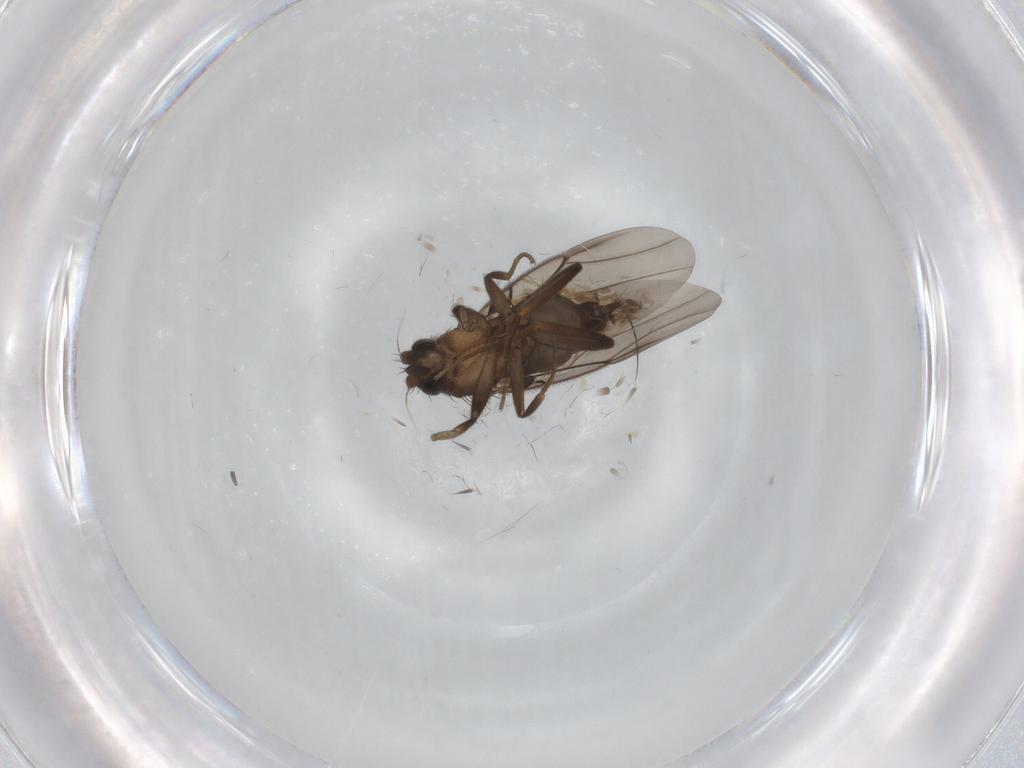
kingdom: Animalia
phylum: Arthropoda
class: Insecta
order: Diptera
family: Phoridae
